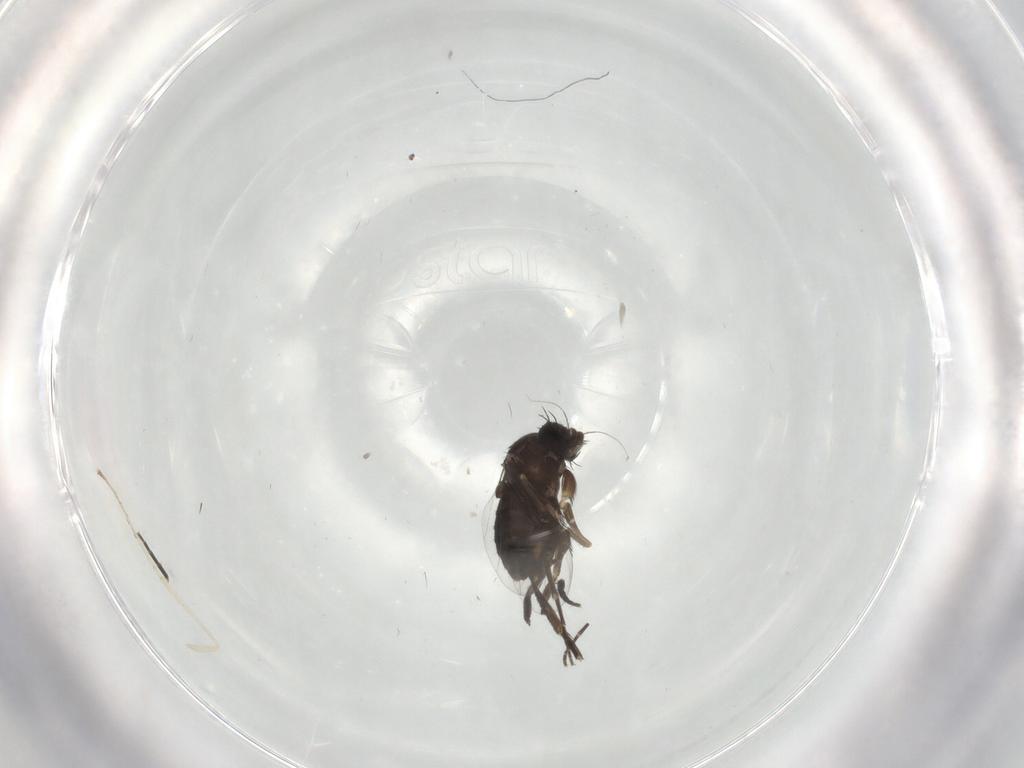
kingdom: Animalia
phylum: Arthropoda
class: Insecta
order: Diptera
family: Phoridae
